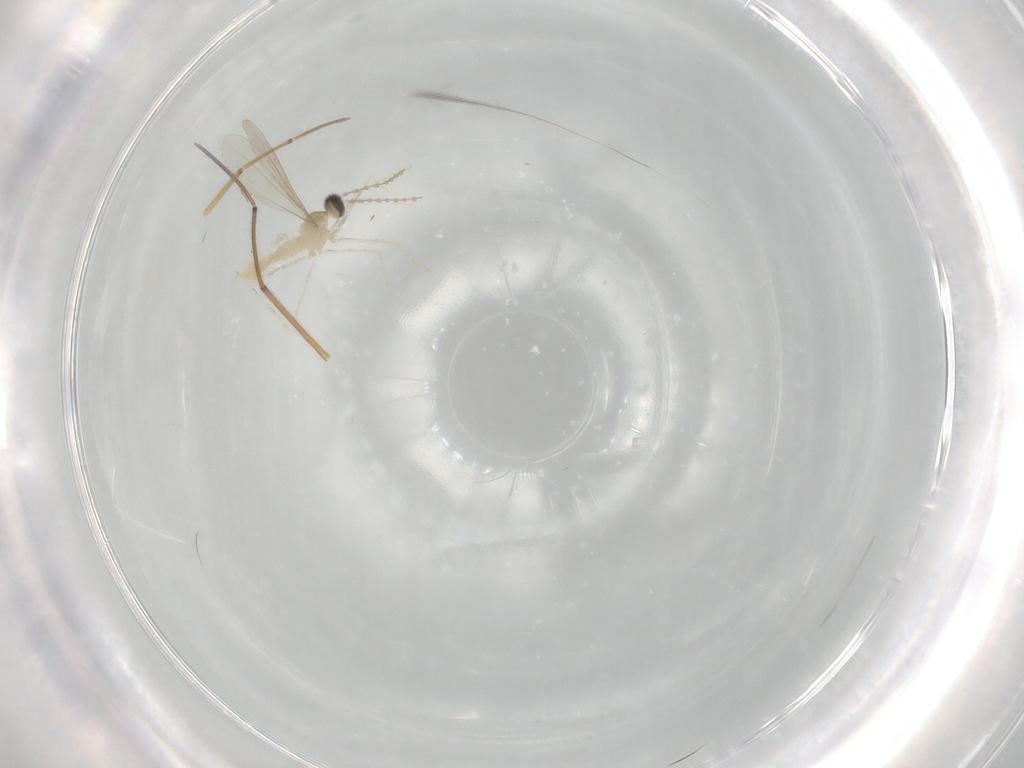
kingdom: Animalia
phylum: Arthropoda
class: Insecta
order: Diptera
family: Cecidomyiidae
